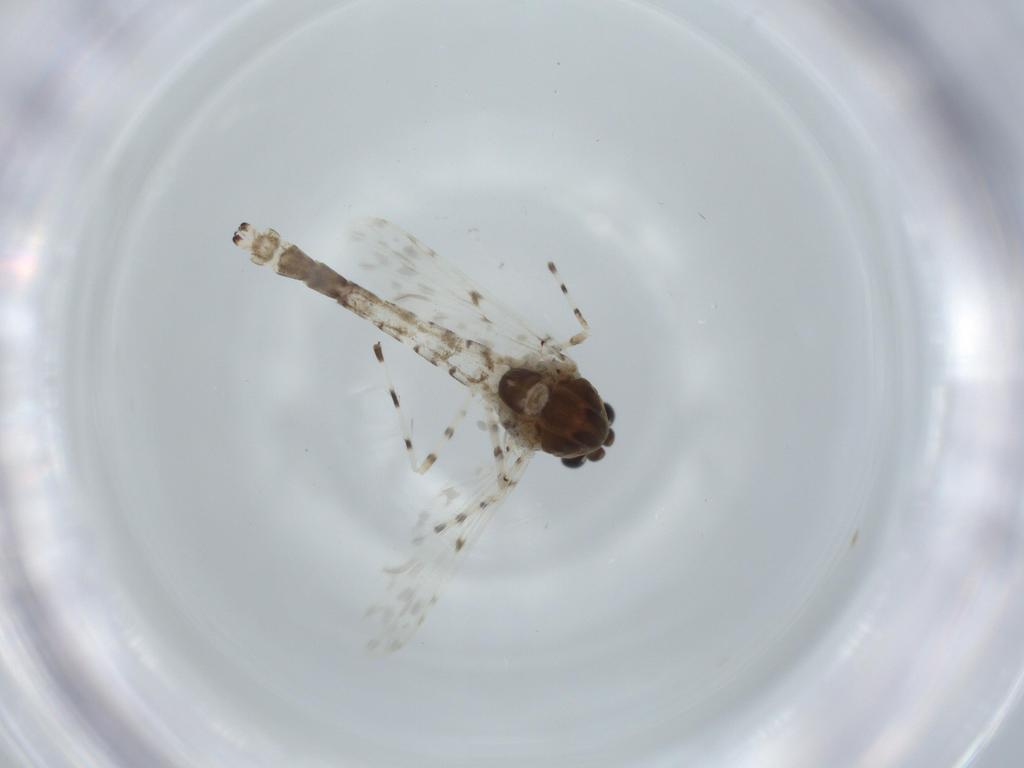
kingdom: Animalia
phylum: Arthropoda
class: Insecta
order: Diptera
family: Chironomidae
